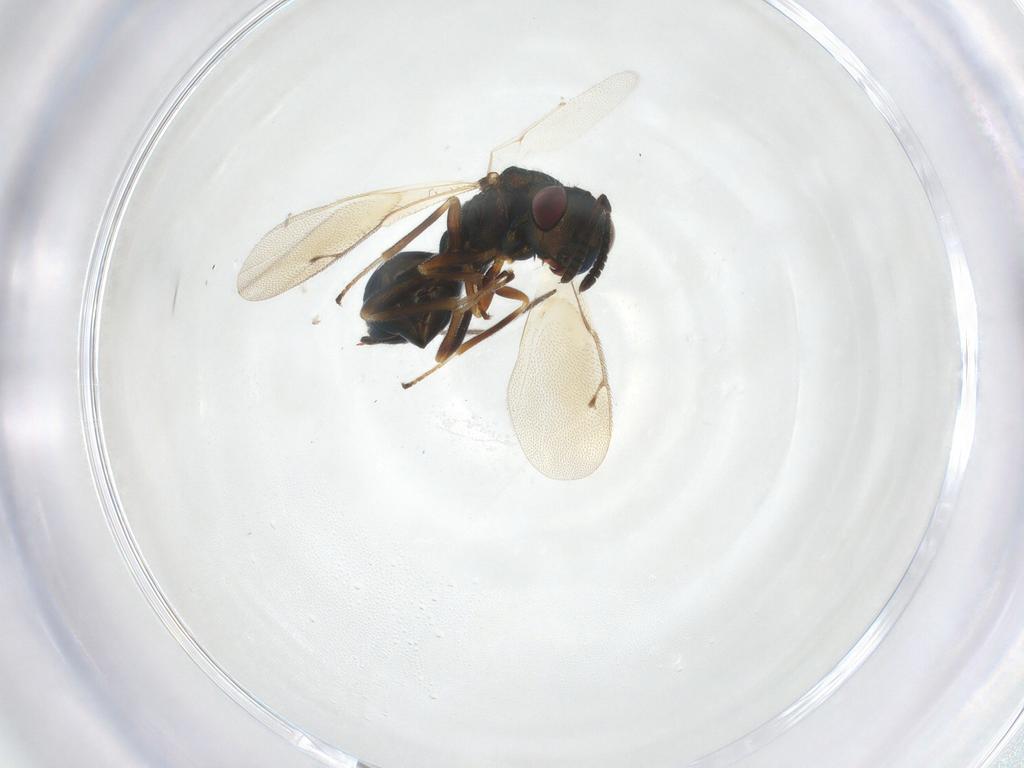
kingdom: Animalia
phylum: Arthropoda
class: Insecta
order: Hymenoptera
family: Pteromalidae
